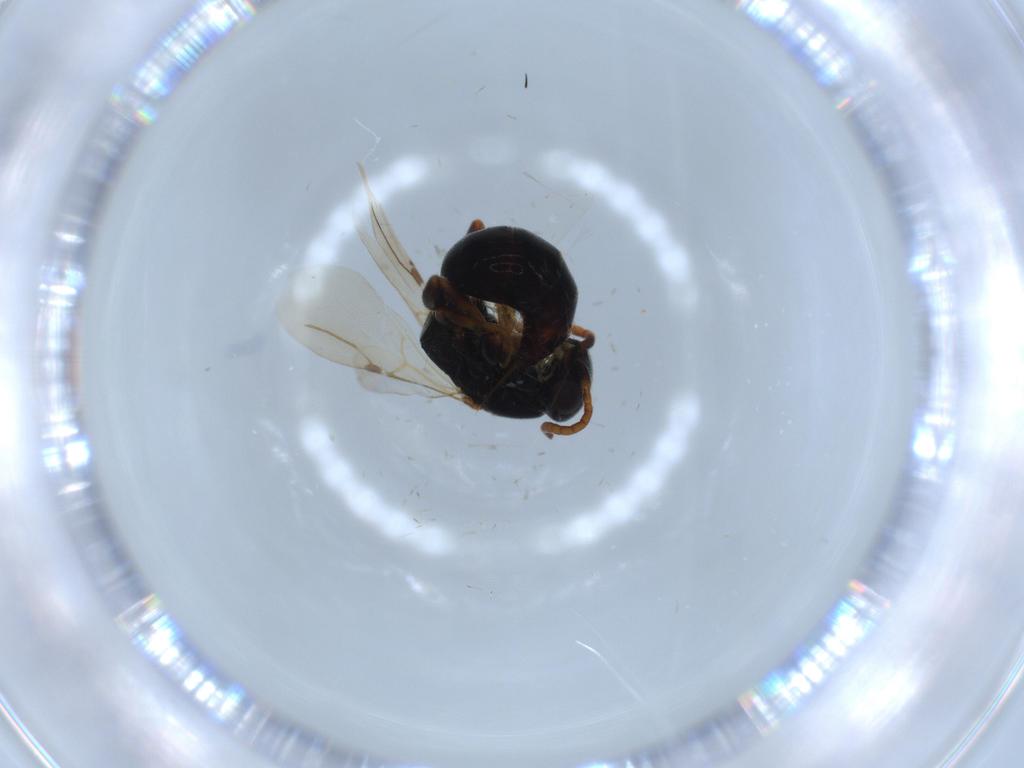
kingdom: Animalia
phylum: Arthropoda
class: Insecta
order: Hymenoptera
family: Bethylidae
